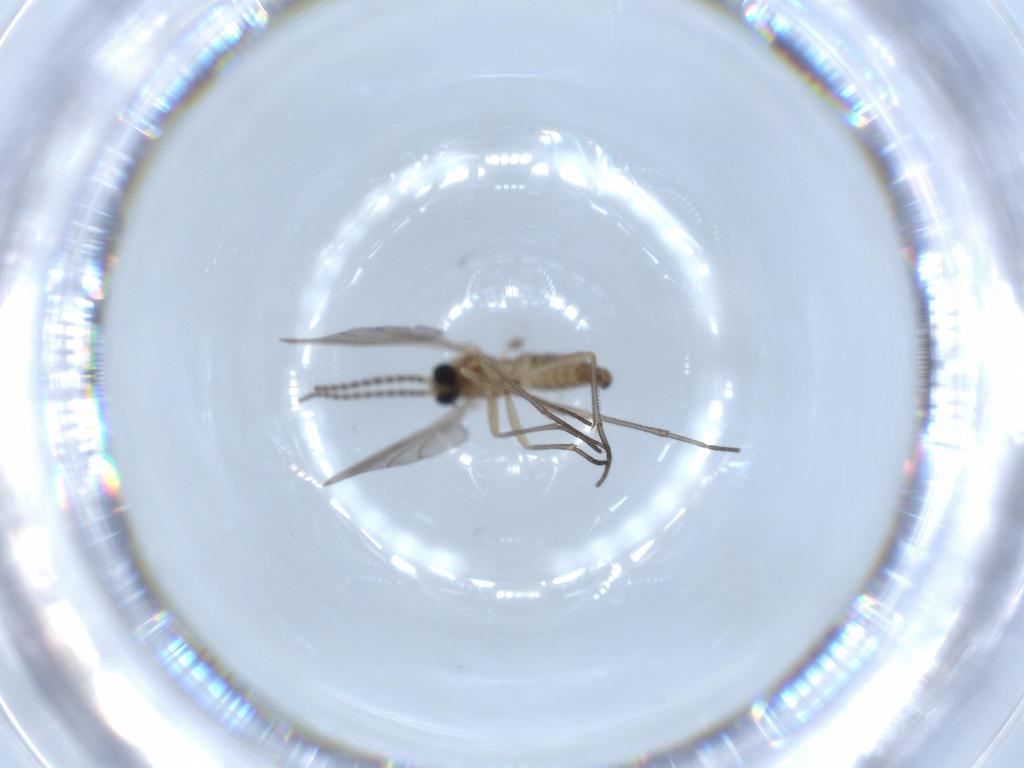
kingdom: Animalia
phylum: Arthropoda
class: Insecta
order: Diptera
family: Sciaridae
